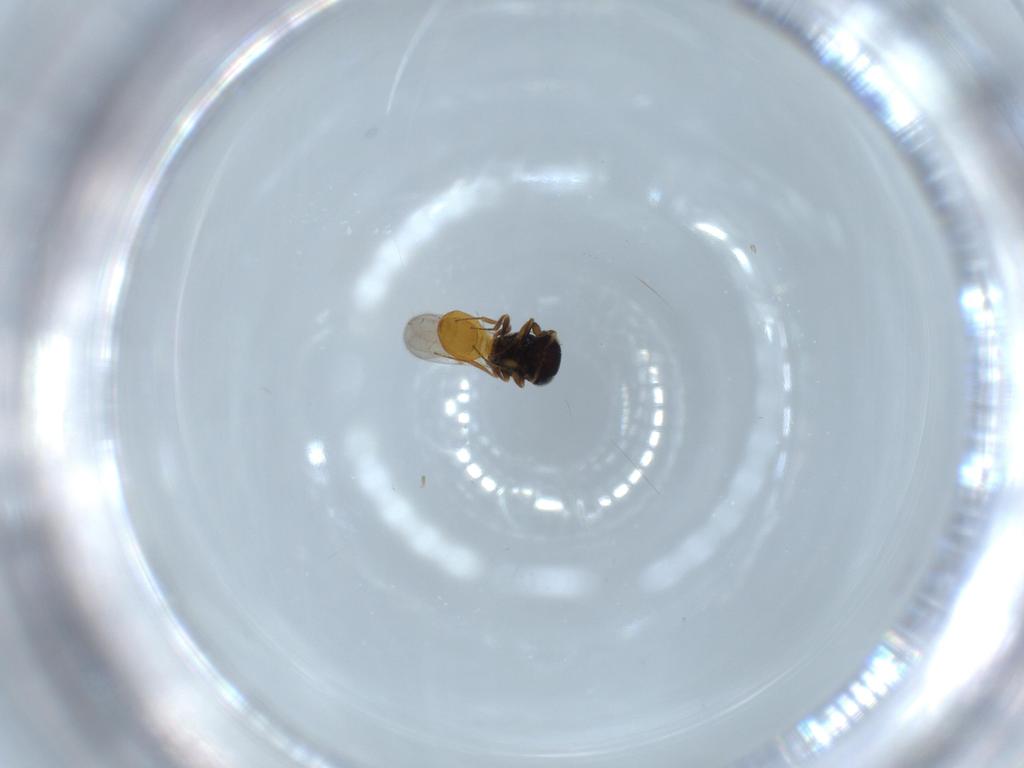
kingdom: Animalia
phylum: Arthropoda
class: Insecta
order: Hymenoptera
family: Scelionidae
